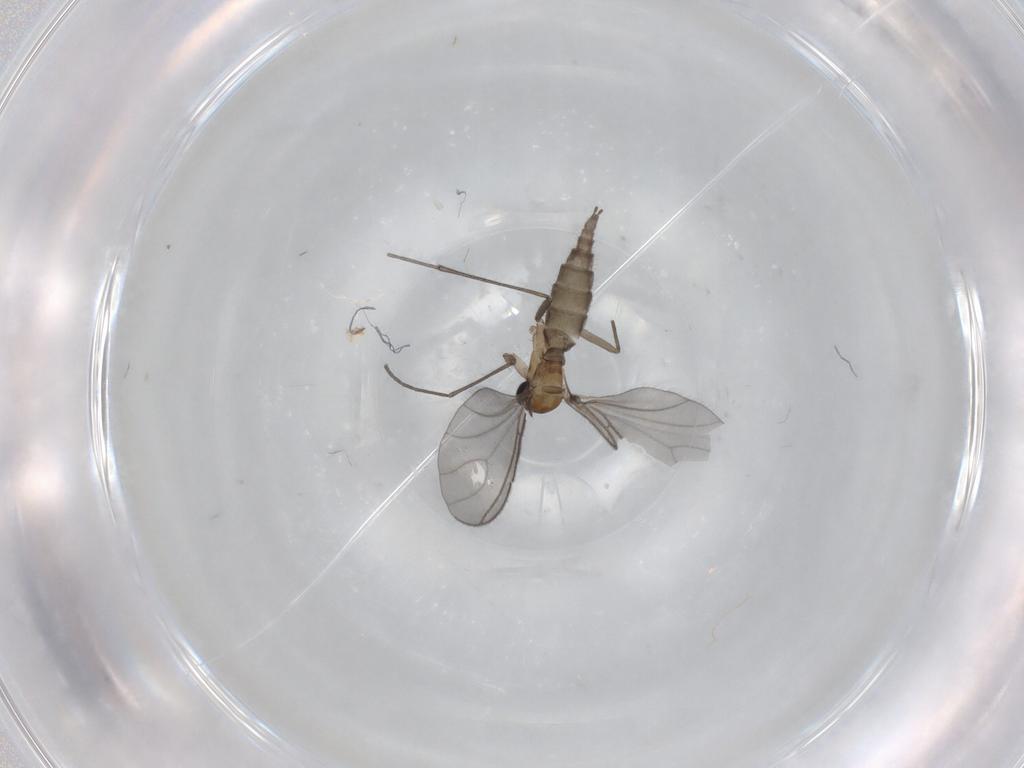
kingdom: Animalia
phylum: Arthropoda
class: Insecta
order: Diptera
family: Sciaridae
